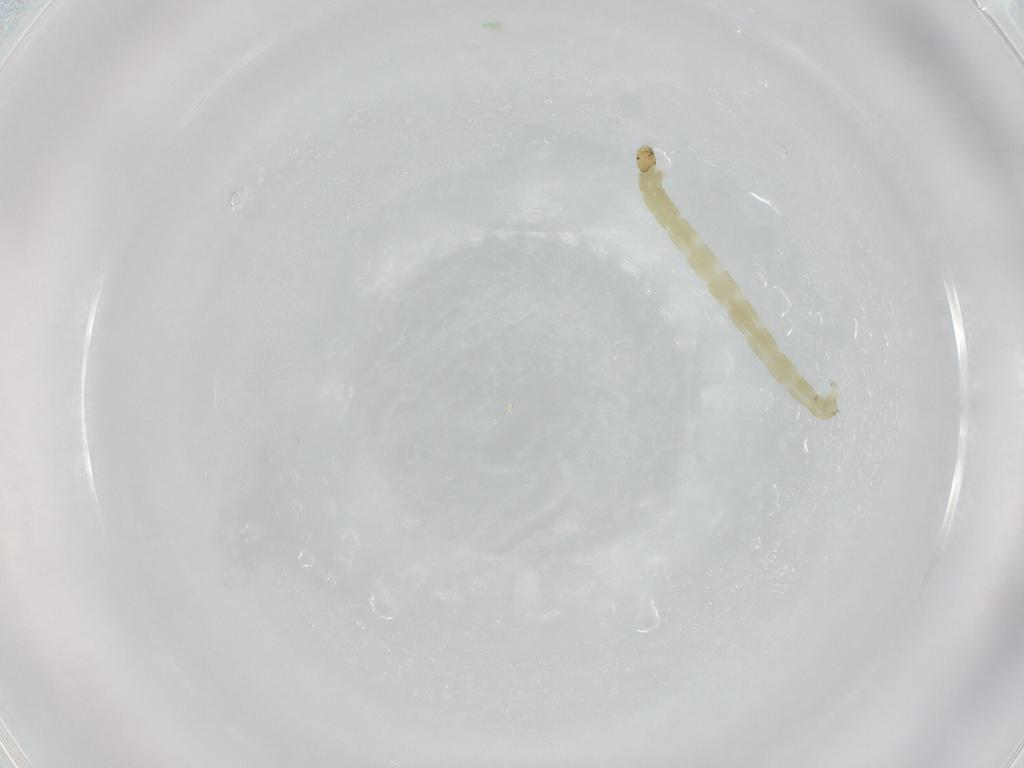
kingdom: Animalia
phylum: Arthropoda
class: Insecta
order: Diptera
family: Chironomidae
